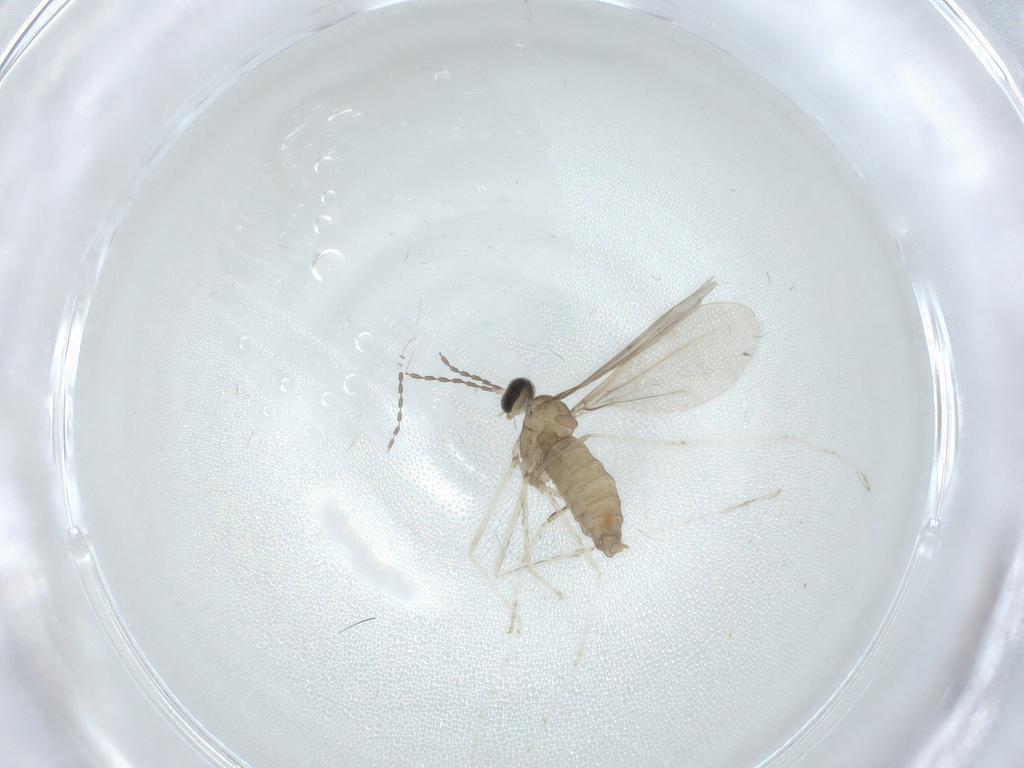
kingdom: Animalia
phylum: Arthropoda
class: Insecta
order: Diptera
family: Cecidomyiidae
